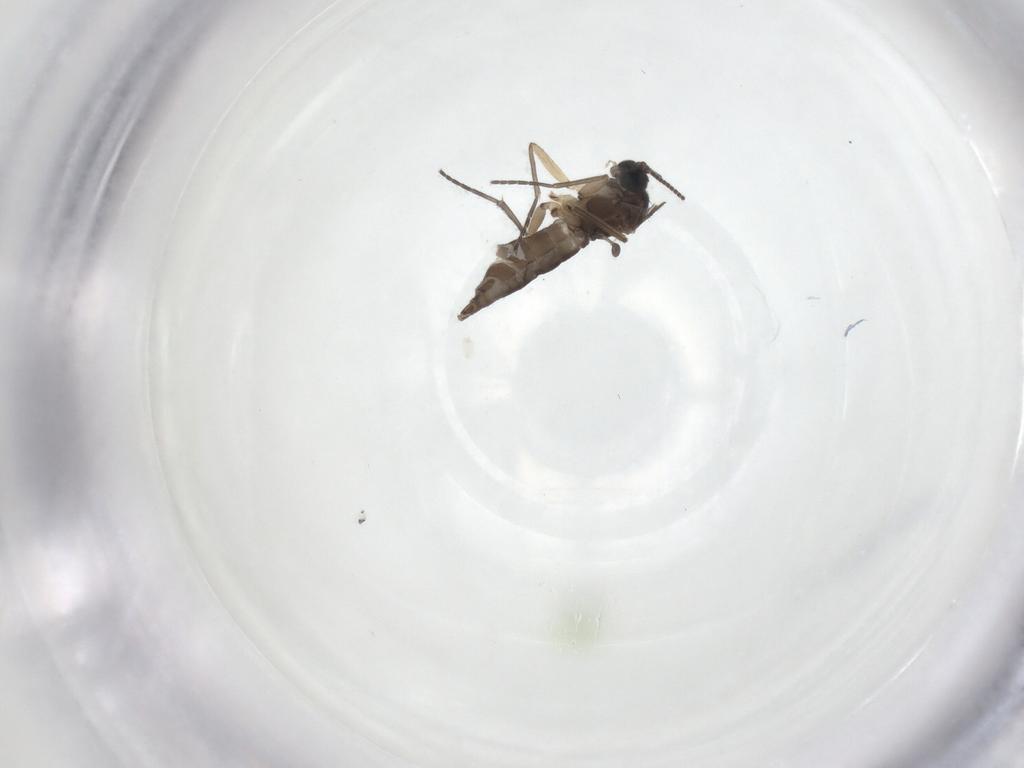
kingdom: Animalia
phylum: Arthropoda
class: Insecta
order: Diptera
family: Sciaridae
